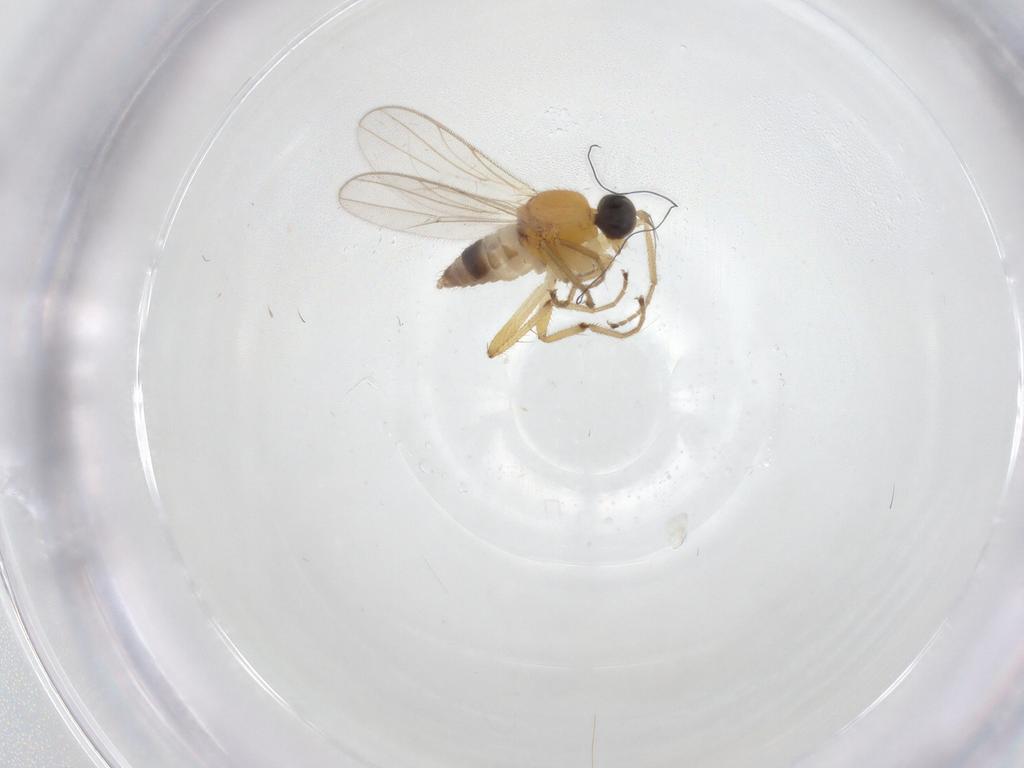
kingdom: Animalia
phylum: Arthropoda
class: Insecta
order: Diptera
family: Hybotidae
